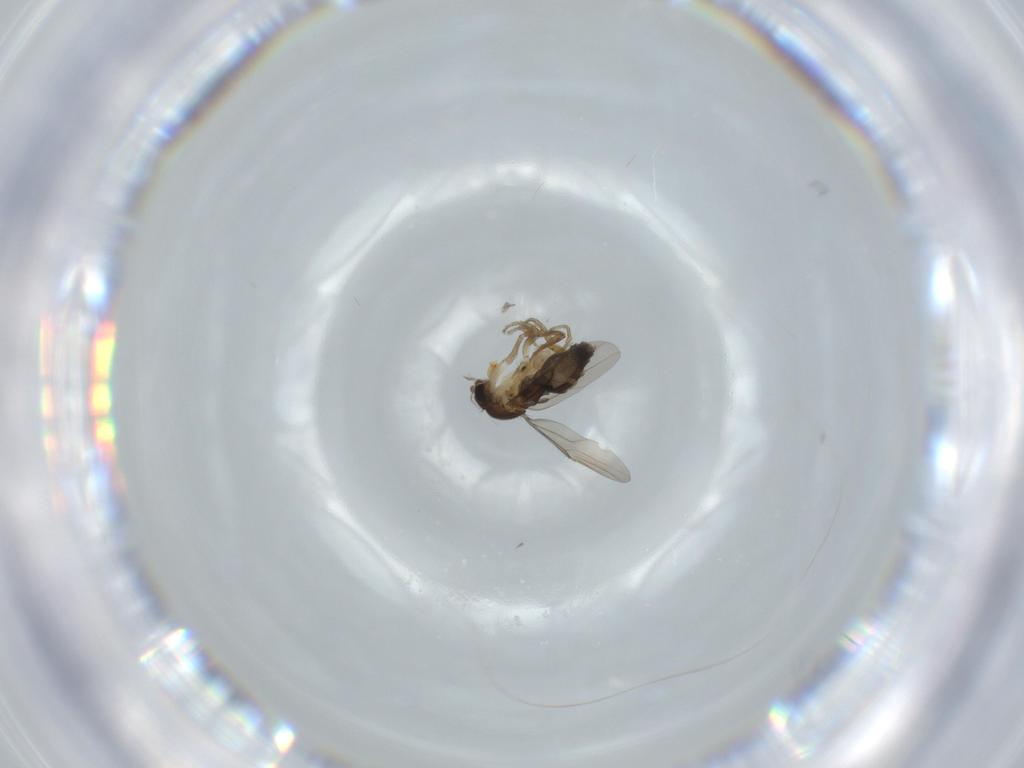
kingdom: Animalia
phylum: Arthropoda
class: Insecta
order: Diptera
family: Phoridae
